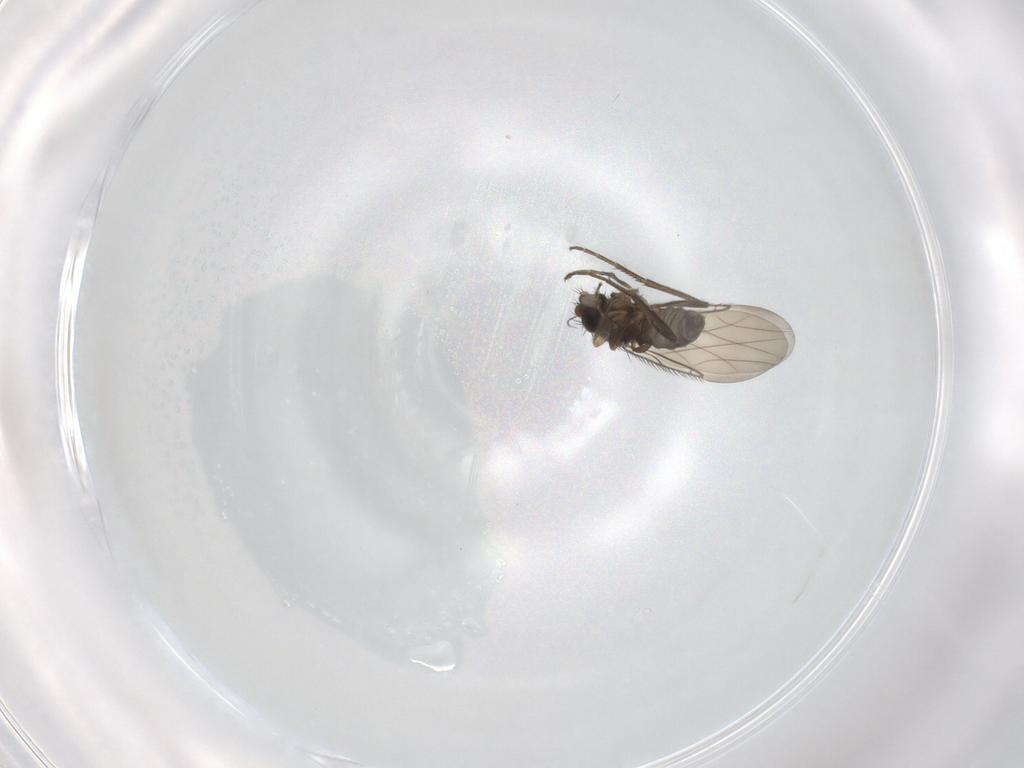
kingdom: Animalia
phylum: Arthropoda
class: Insecta
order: Diptera
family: Phoridae
